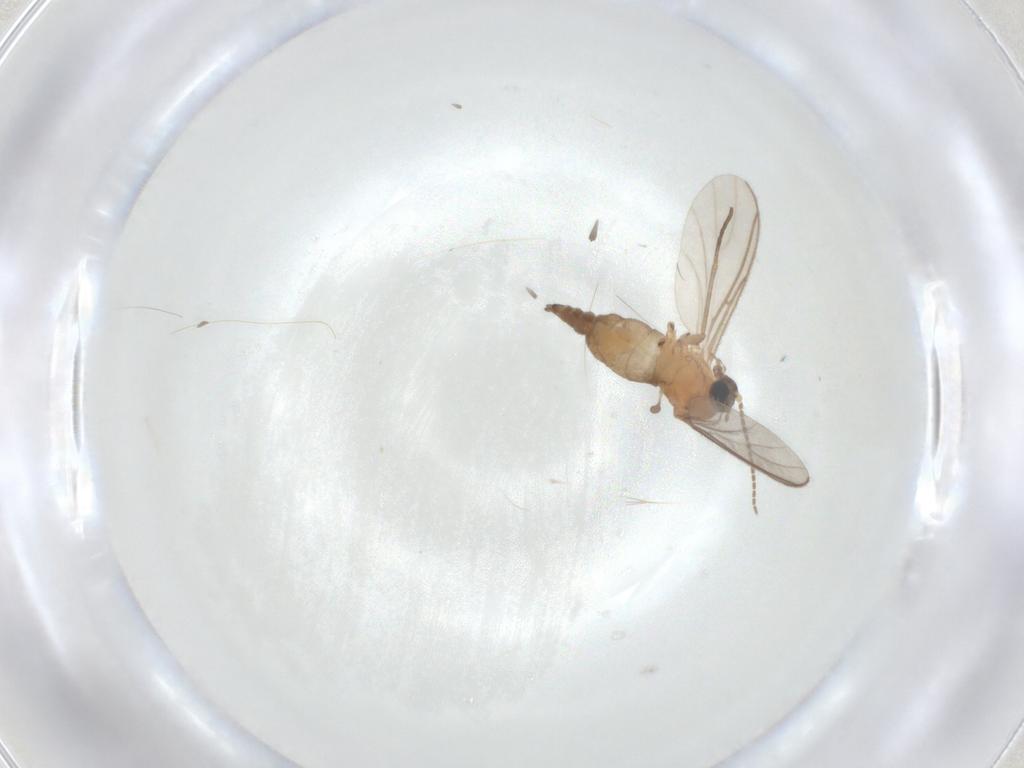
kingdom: Animalia
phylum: Arthropoda
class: Insecta
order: Diptera
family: Sciaridae
